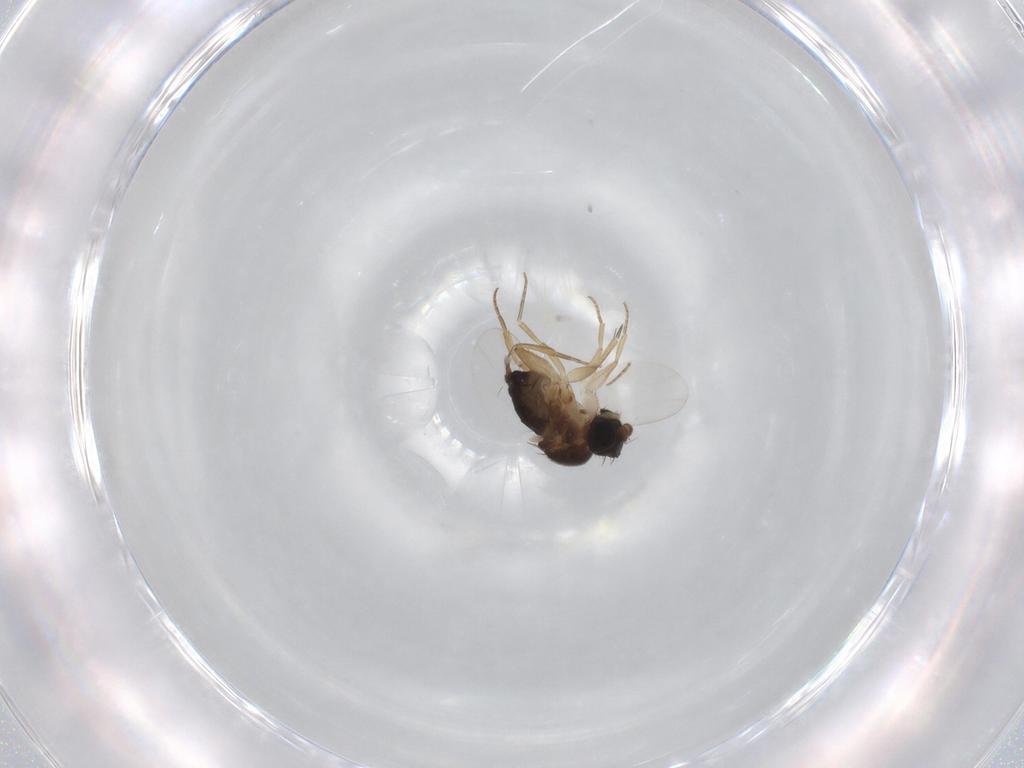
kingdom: Animalia
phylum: Arthropoda
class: Insecta
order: Diptera
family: Phoridae
